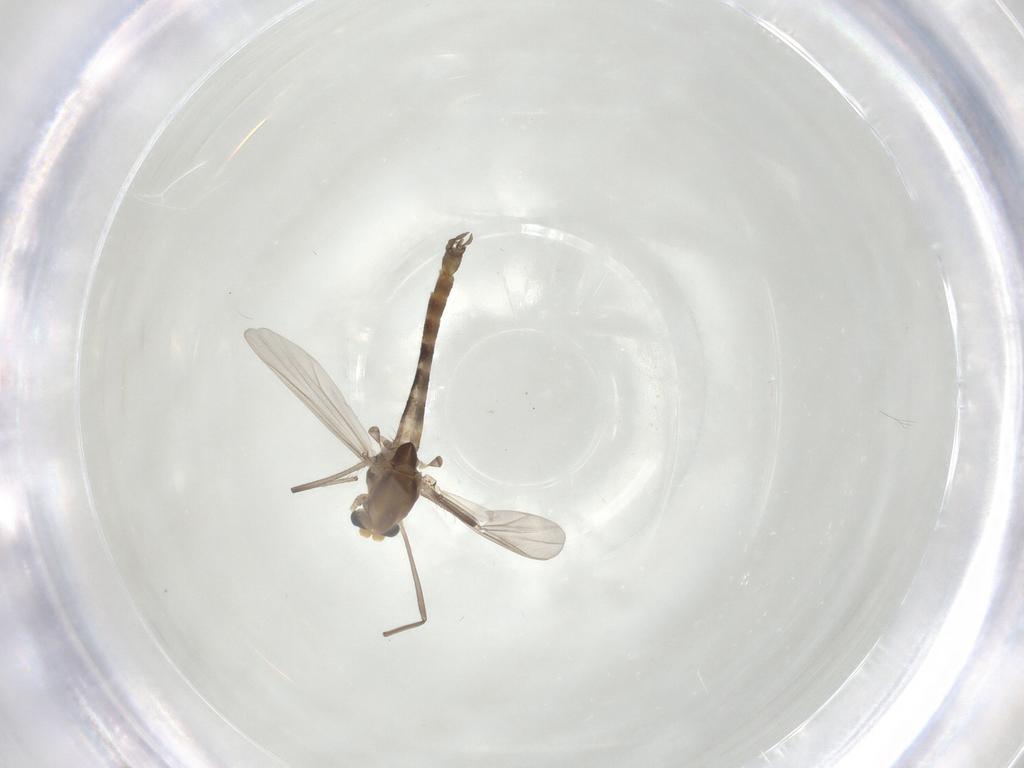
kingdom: Animalia
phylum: Arthropoda
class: Insecta
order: Diptera
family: Chironomidae
